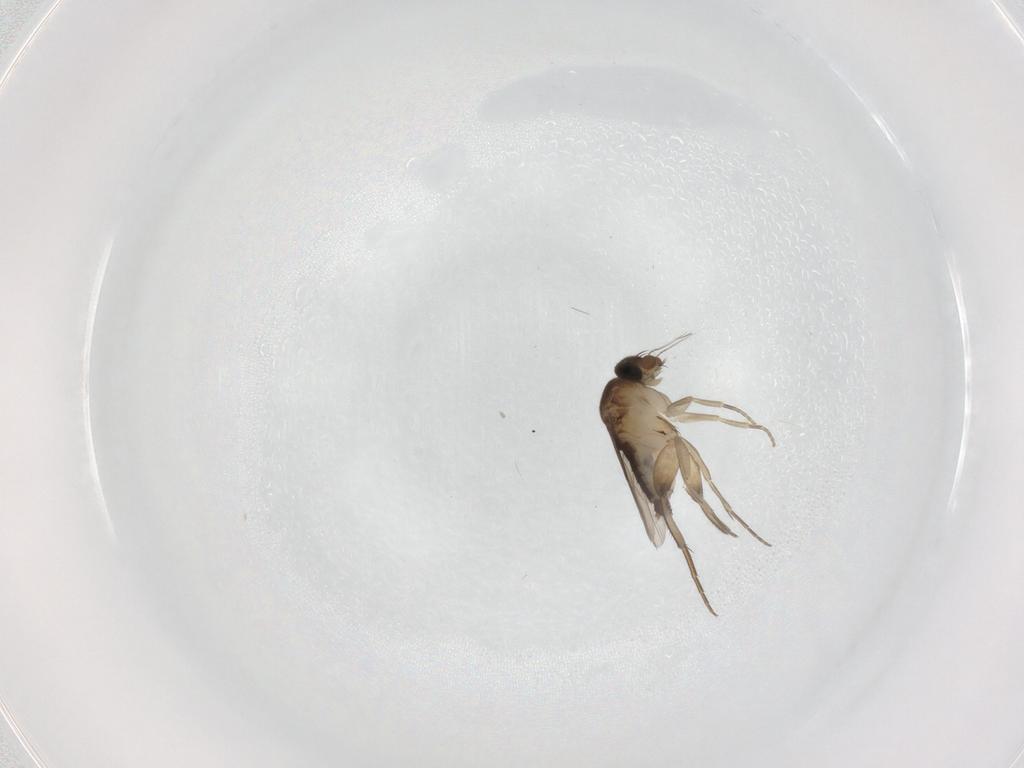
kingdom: Animalia
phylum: Arthropoda
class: Insecta
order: Diptera
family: Phoridae
